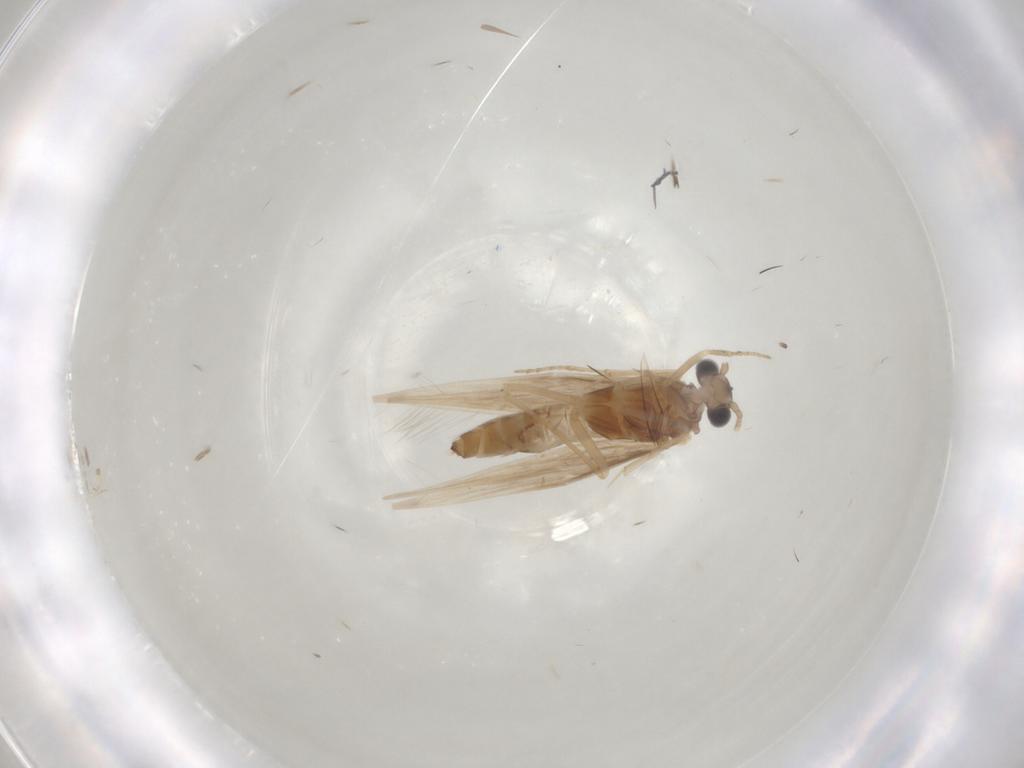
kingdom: Animalia
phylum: Arthropoda
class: Insecta
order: Trichoptera
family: Hydroptilidae
